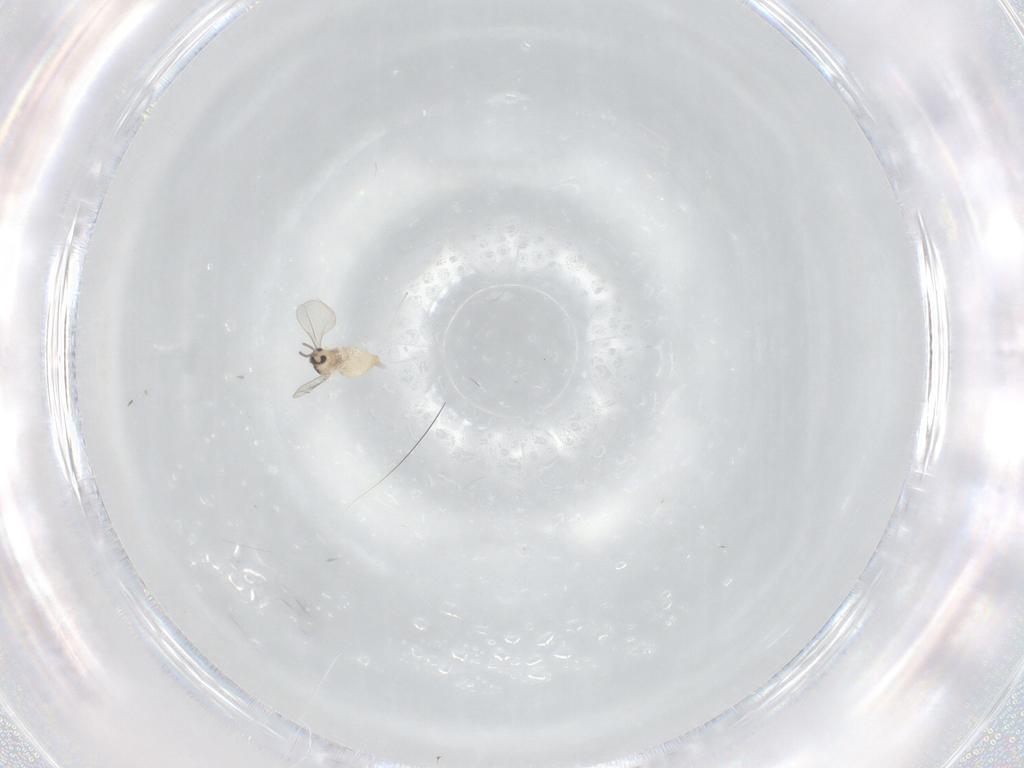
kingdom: Animalia
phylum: Arthropoda
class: Insecta
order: Diptera
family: Cecidomyiidae
